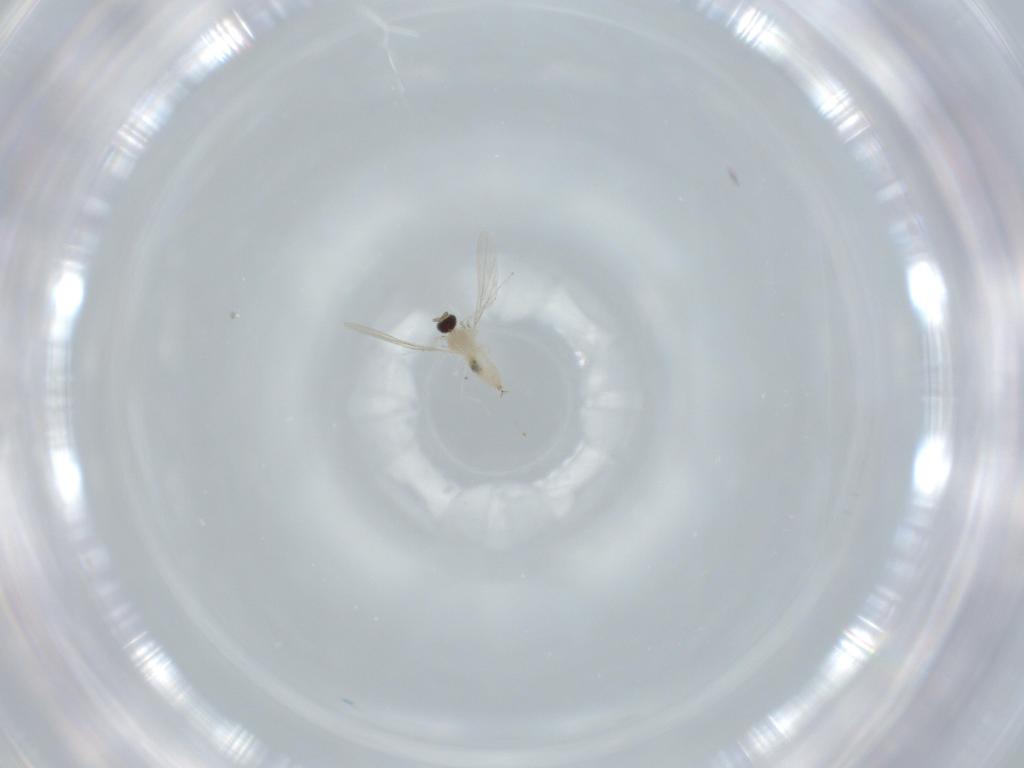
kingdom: Animalia
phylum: Arthropoda
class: Insecta
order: Diptera
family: Cecidomyiidae
